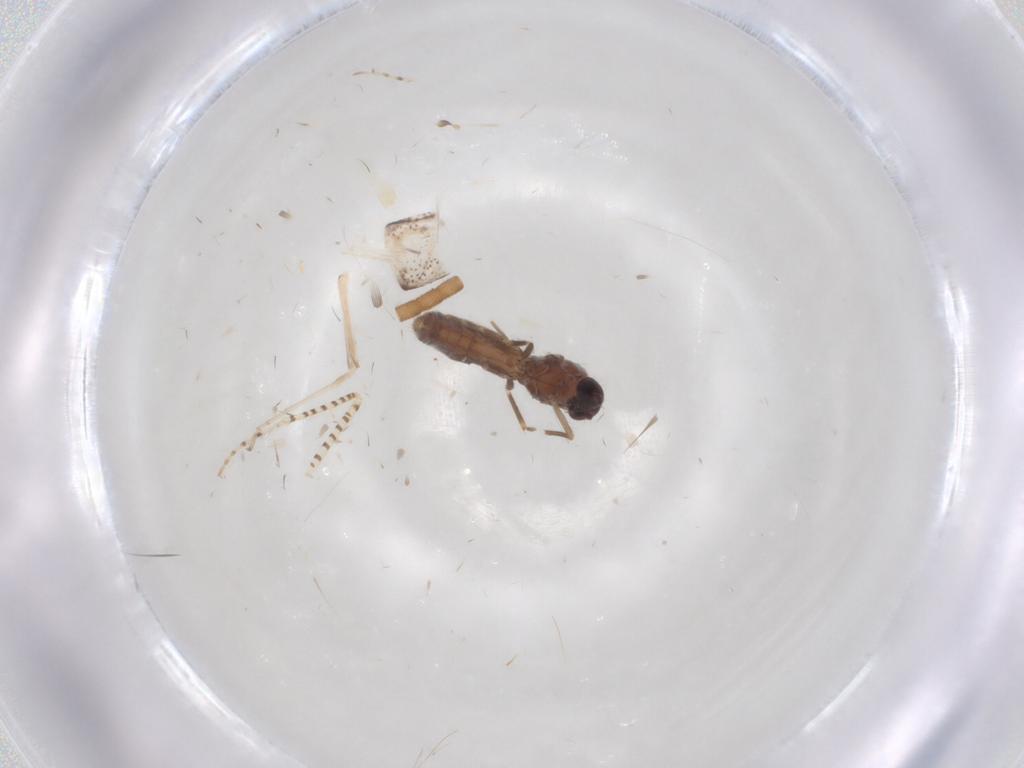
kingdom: Animalia
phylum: Arthropoda
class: Insecta
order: Diptera
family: Ceratopogonidae
